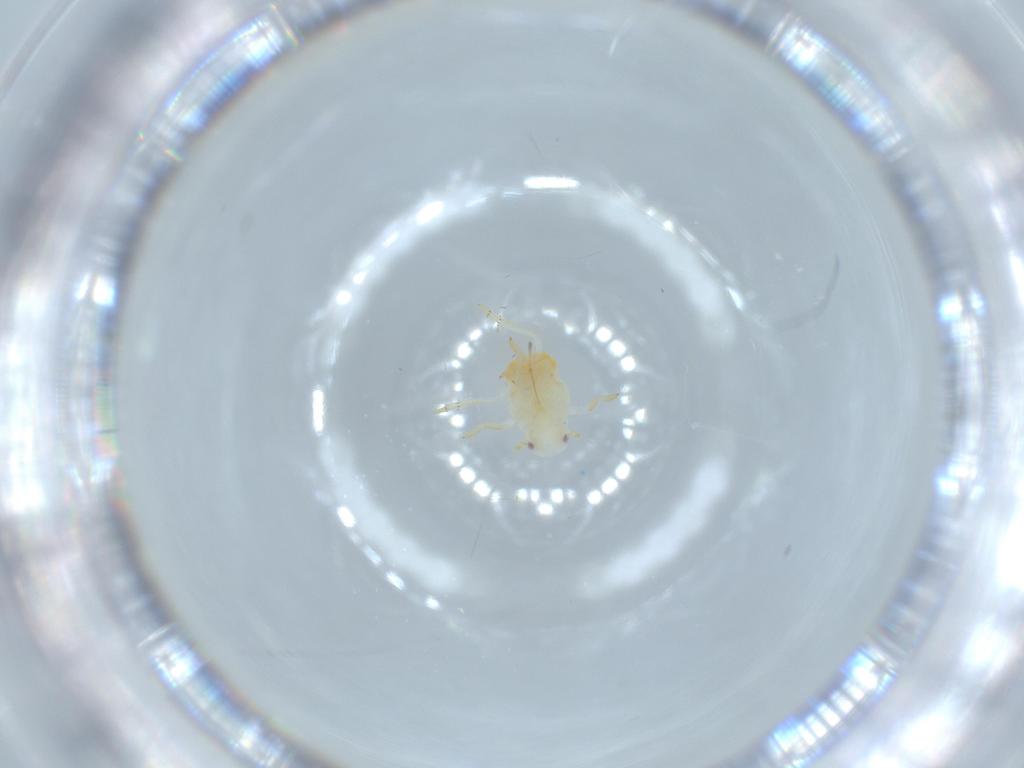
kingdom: Animalia
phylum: Arthropoda
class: Insecta
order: Hemiptera
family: Flatidae
